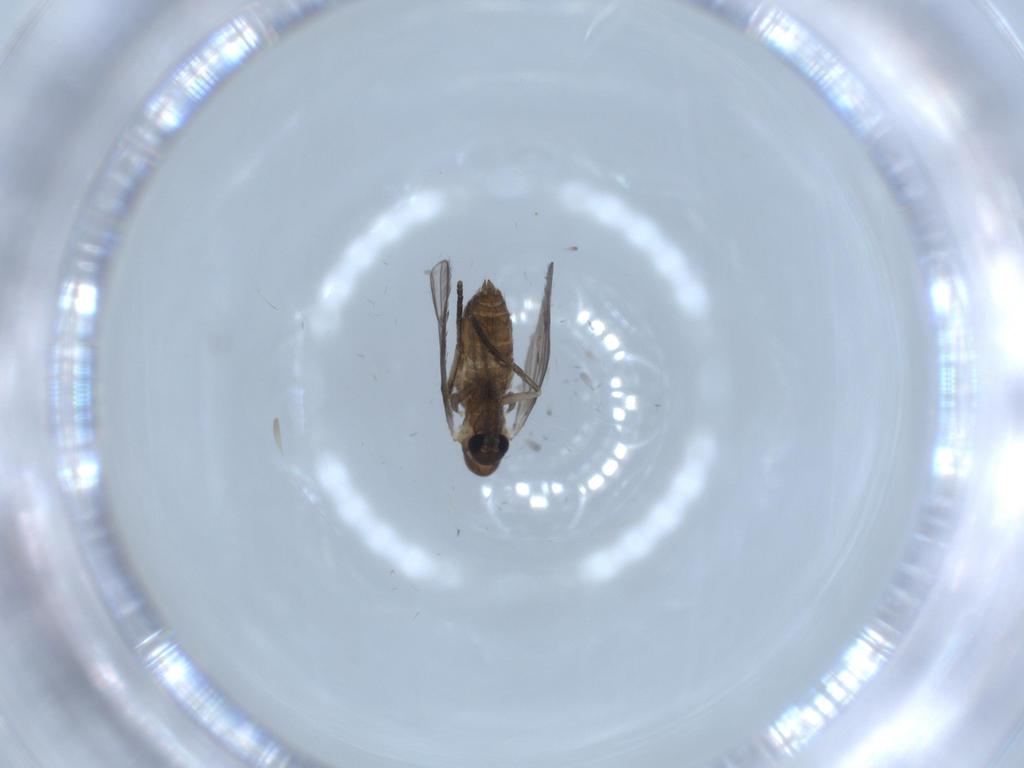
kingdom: Animalia
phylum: Arthropoda
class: Insecta
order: Diptera
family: Psychodidae
